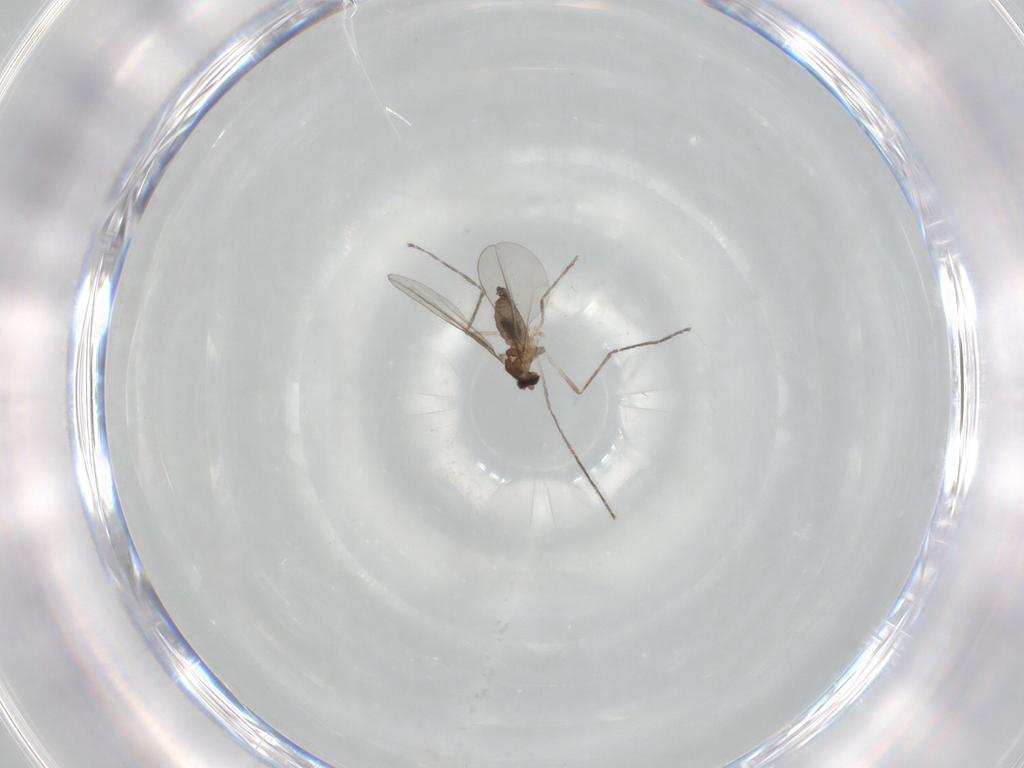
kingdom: Animalia
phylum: Arthropoda
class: Insecta
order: Diptera
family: Cecidomyiidae
